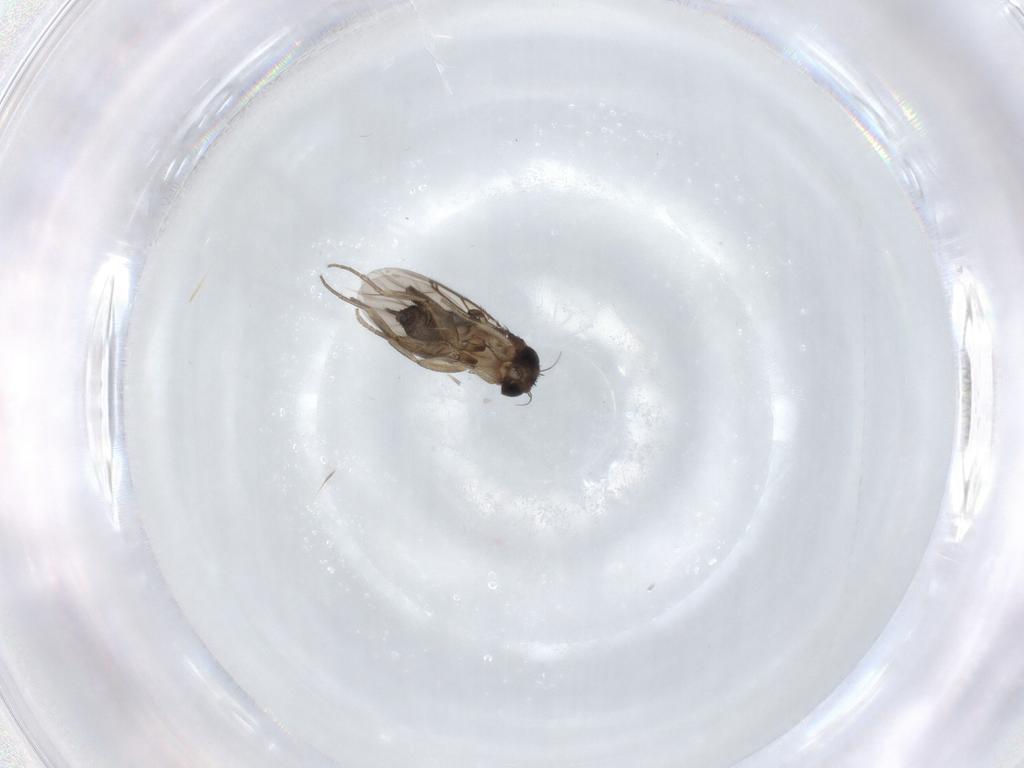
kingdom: Animalia
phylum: Arthropoda
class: Insecta
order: Diptera
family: Phoridae
